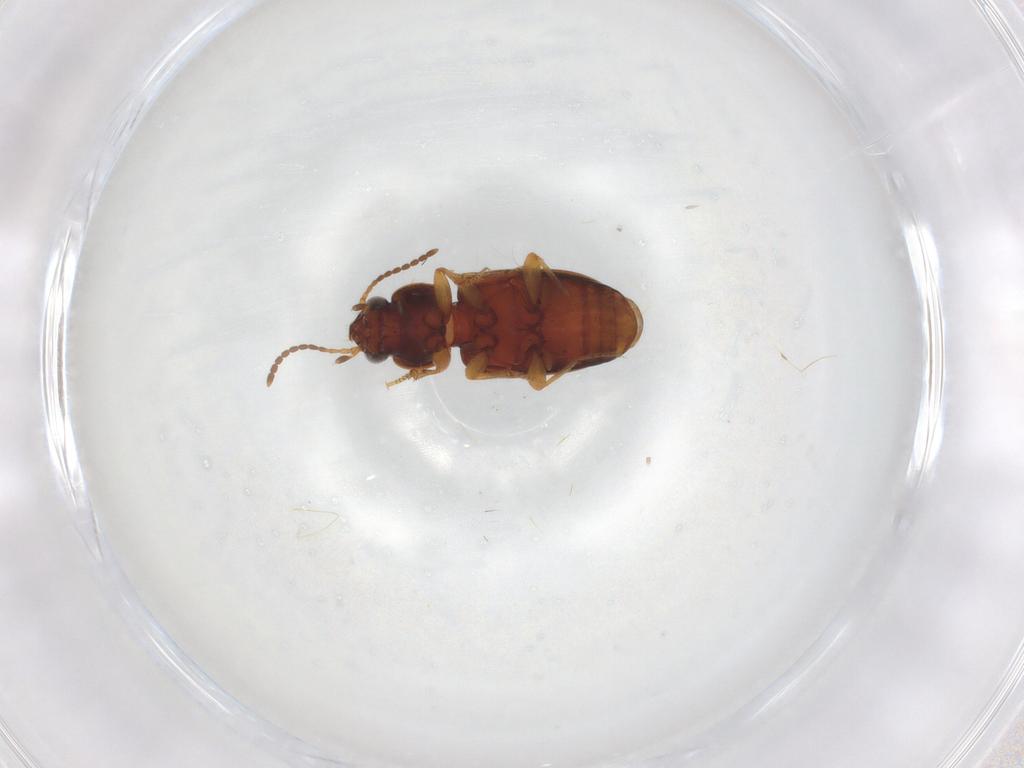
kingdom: Animalia
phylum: Arthropoda
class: Insecta
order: Coleoptera
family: Carabidae
